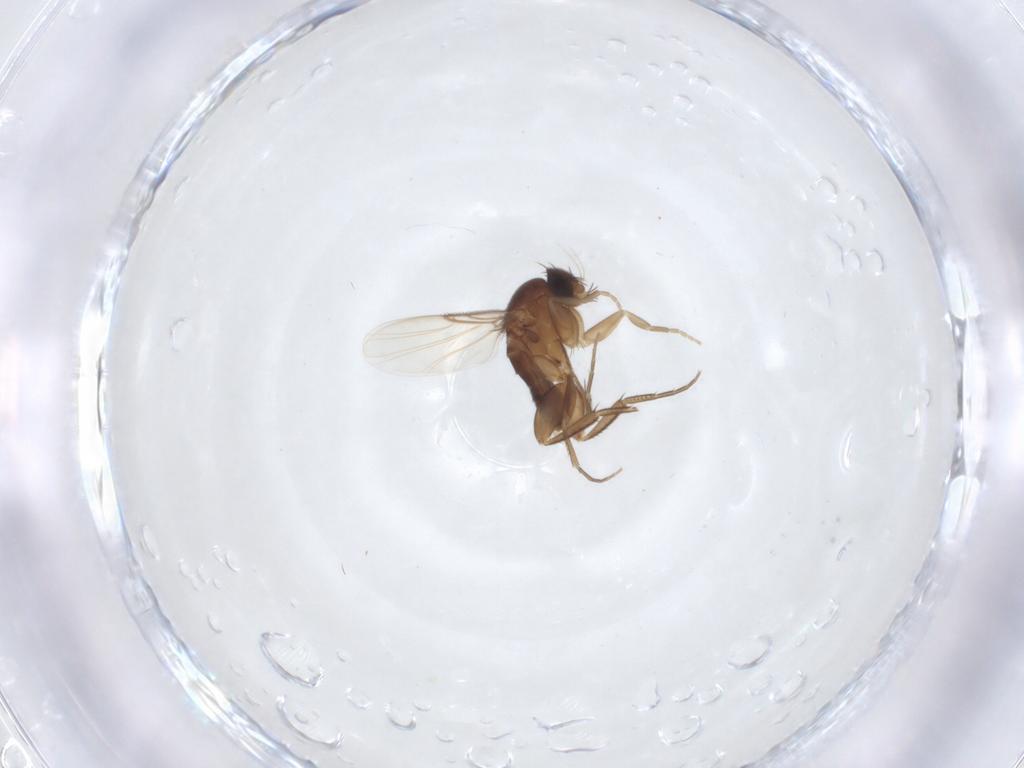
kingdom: Animalia
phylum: Arthropoda
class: Insecta
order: Diptera
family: Phoridae
